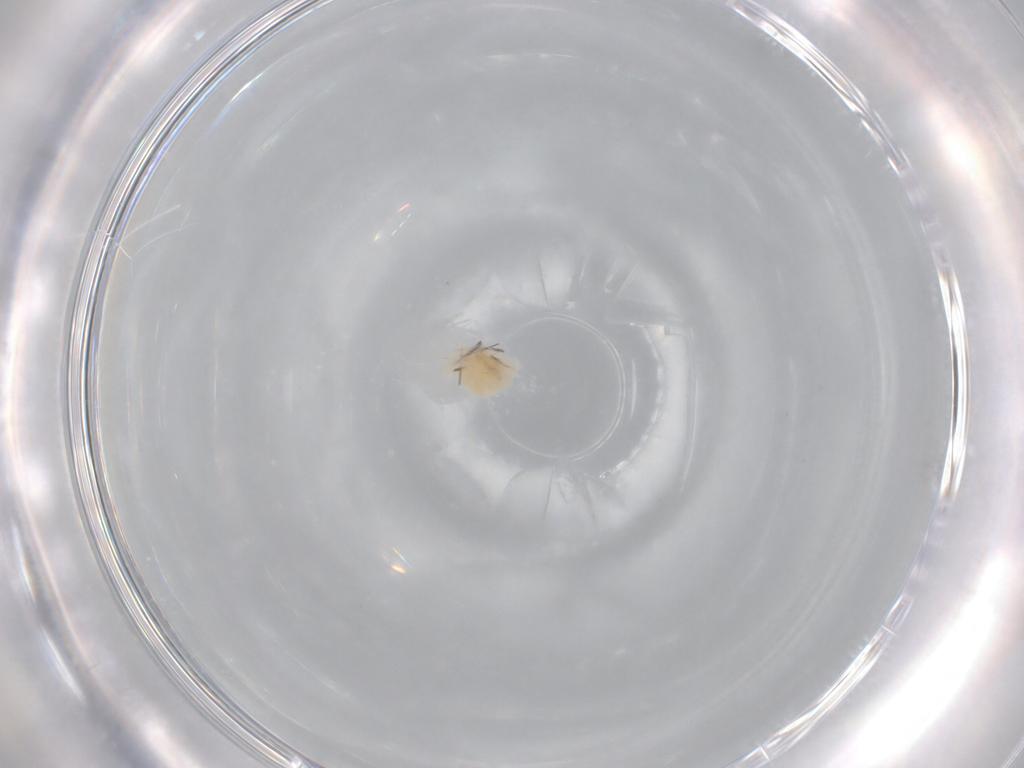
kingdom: Animalia
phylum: Arthropoda
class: Arachnida
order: Trombidiformes
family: Anystidae
